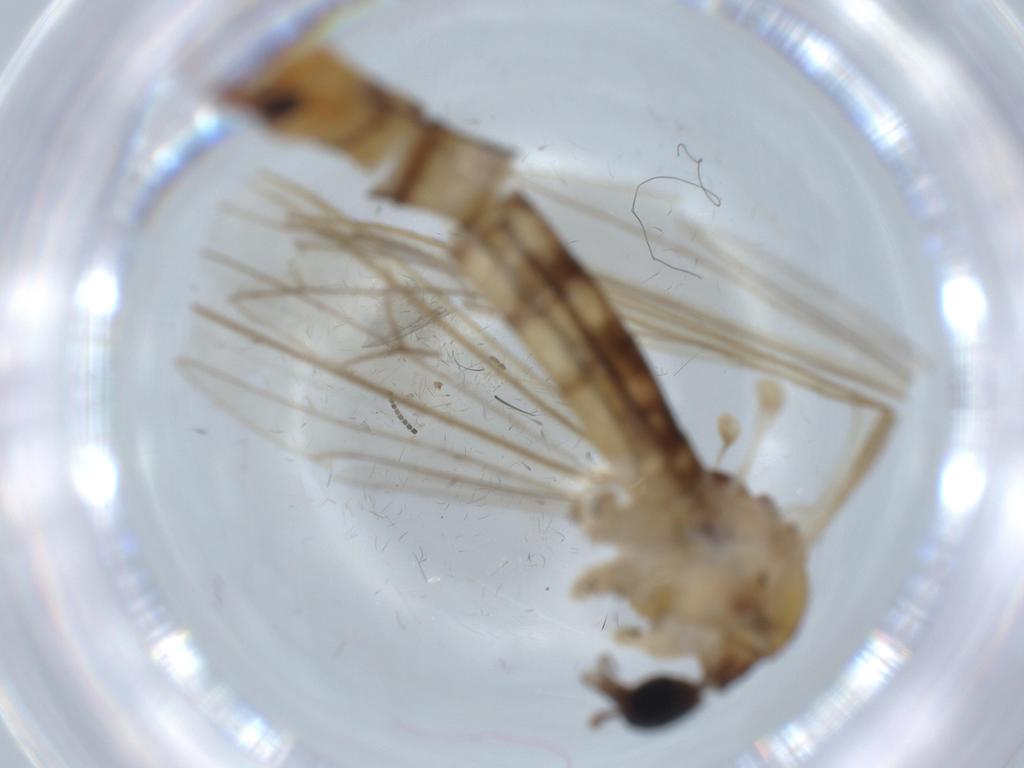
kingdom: Animalia
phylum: Arthropoda
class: Insecta
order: Diptera
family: Limoniidae
